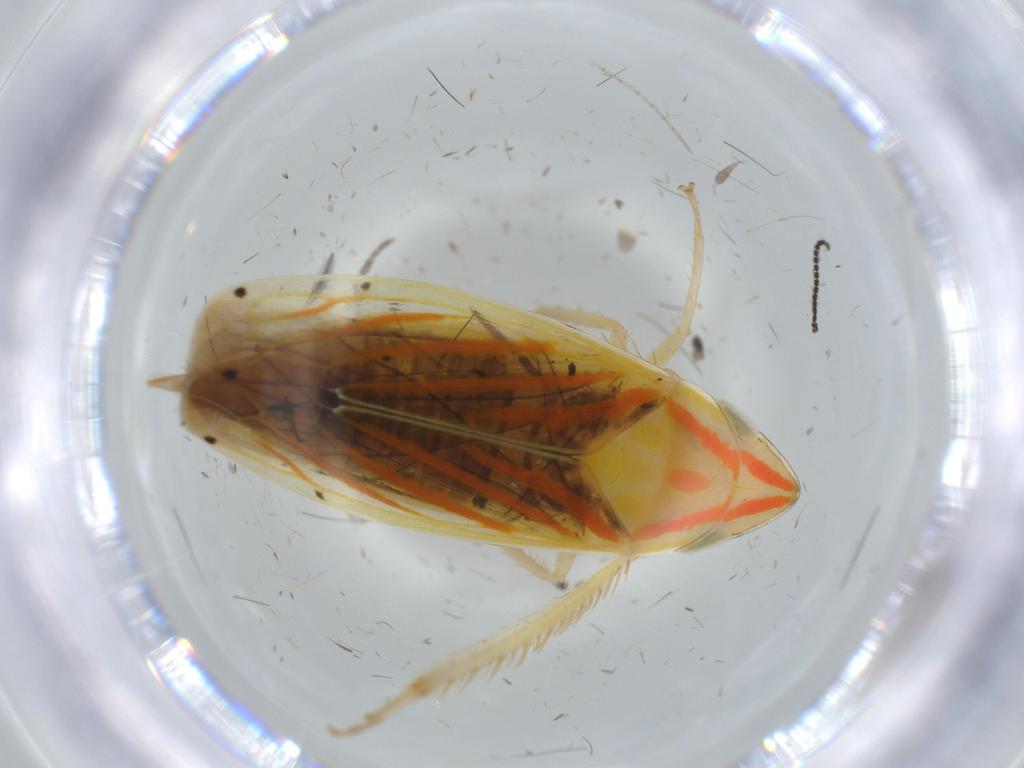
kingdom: Animalia
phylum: Arthropoda
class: Insecta
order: Hemiptera
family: Cicadellidae
